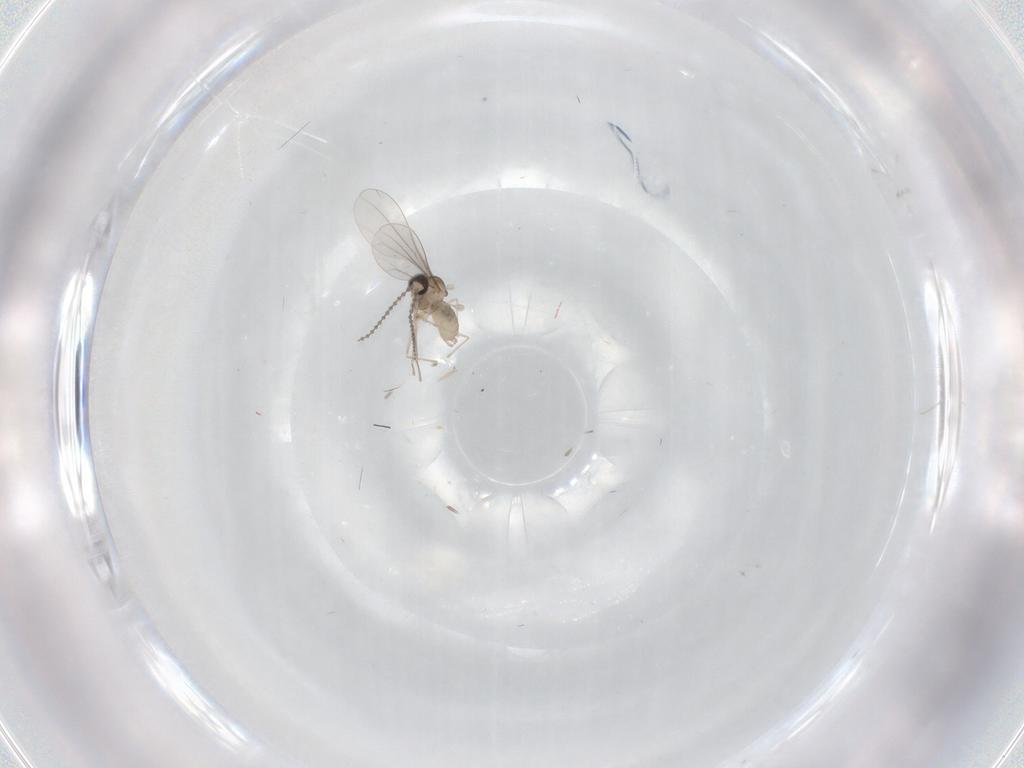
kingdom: Animalia
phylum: Arthropoda
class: Insecta
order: Diptera
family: Cecidomyiidae
